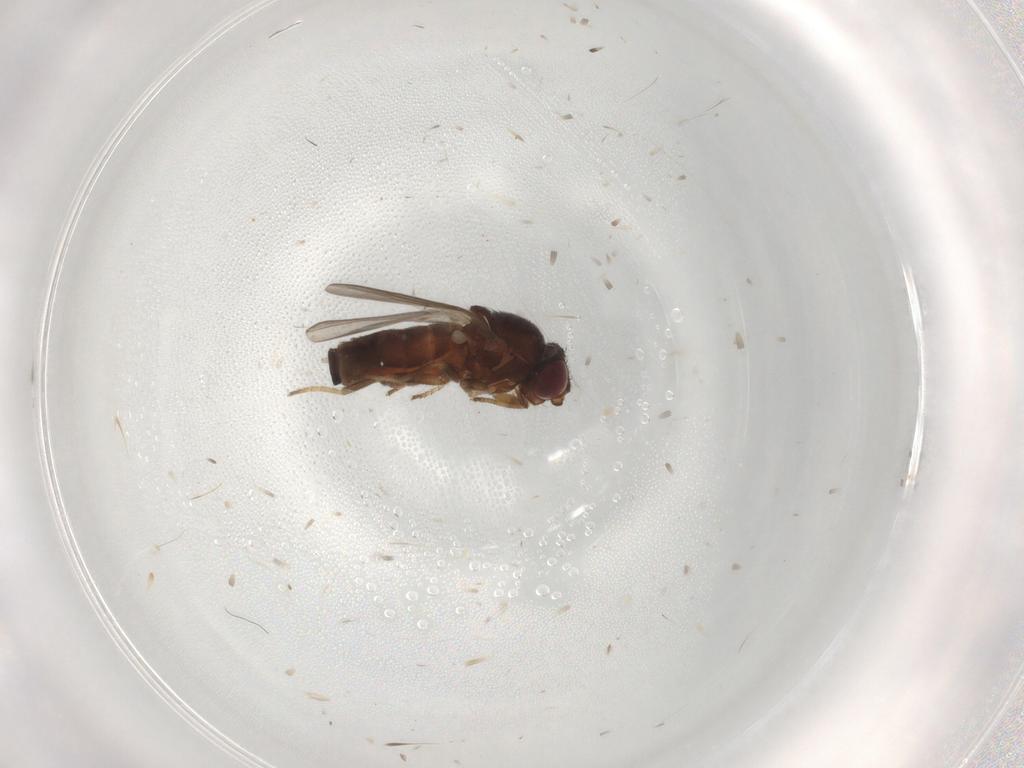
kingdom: Animalia
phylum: Arthropoda
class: Insecta
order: Diptera
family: Chloropidae
